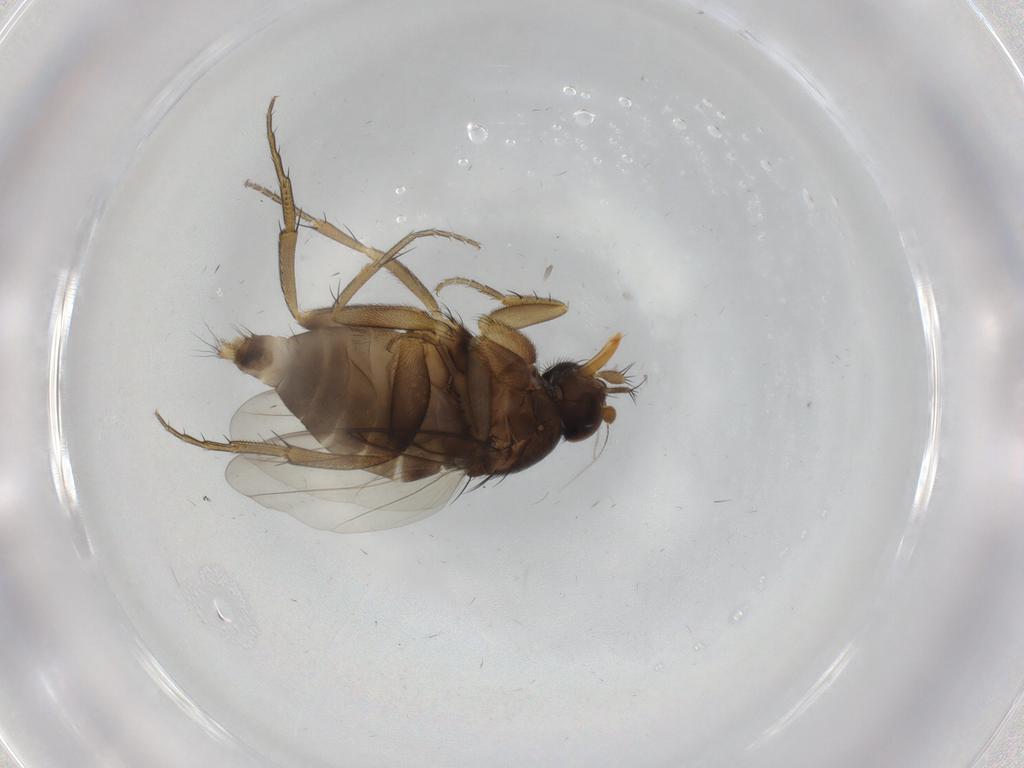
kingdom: Animalia
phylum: Arthropoda
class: Insecta
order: Diptera
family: Phoridae
